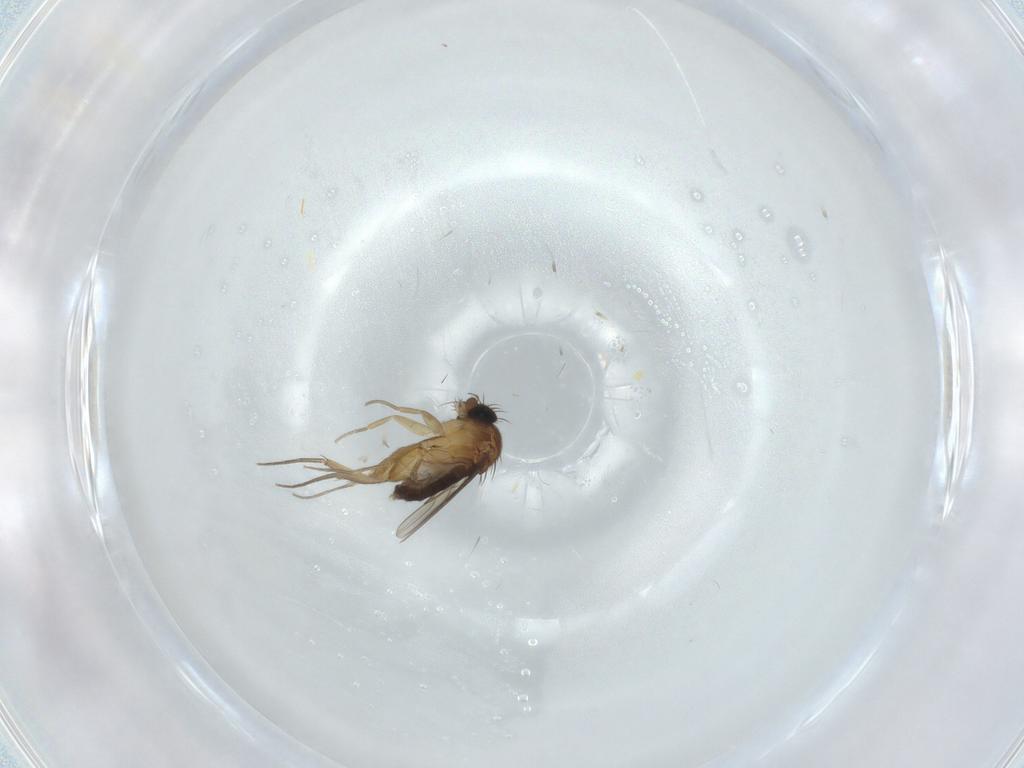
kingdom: Animalia
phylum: Arthropoda
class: Insecta
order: Diptera
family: Phoridae
